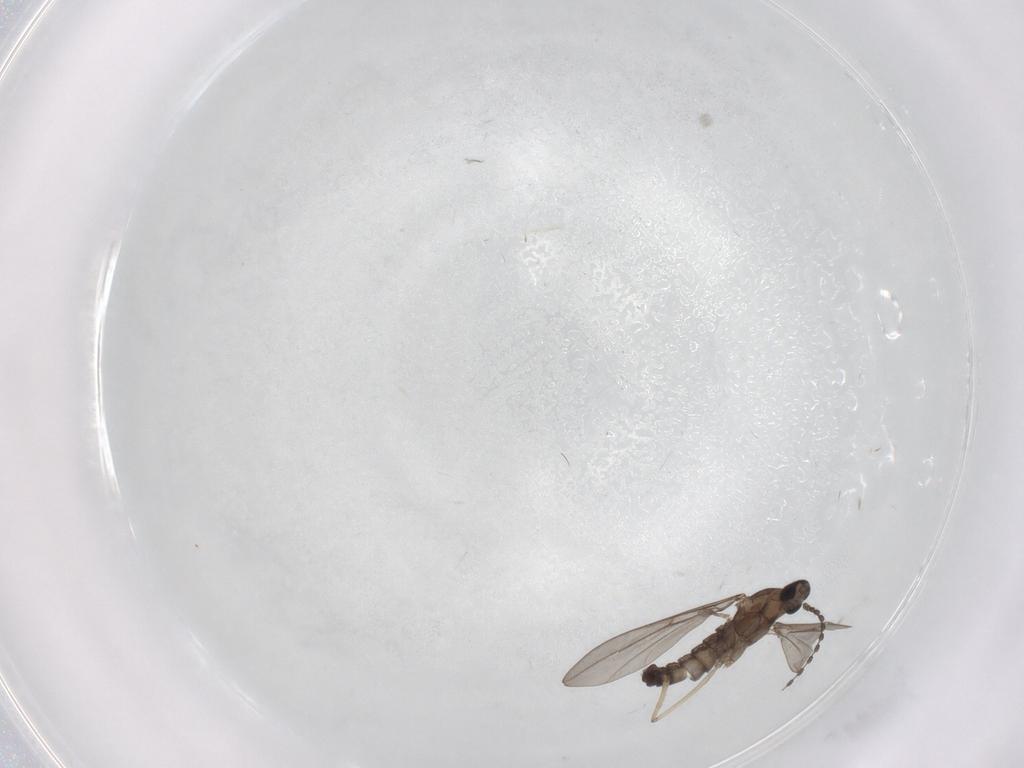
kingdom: Animalia
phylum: Arthropoda
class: Insecta
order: Diptera
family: Cecidomyiidae
